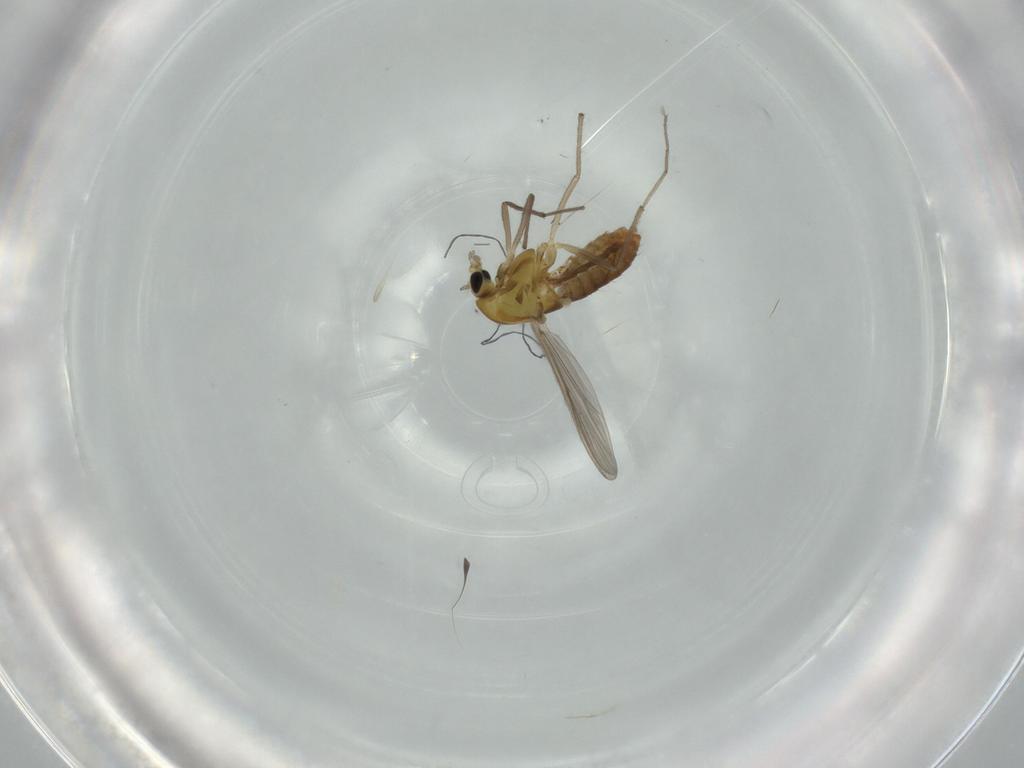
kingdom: Animalia
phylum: Arthropoda
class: Insecta
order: Diptera
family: Chironomidae
